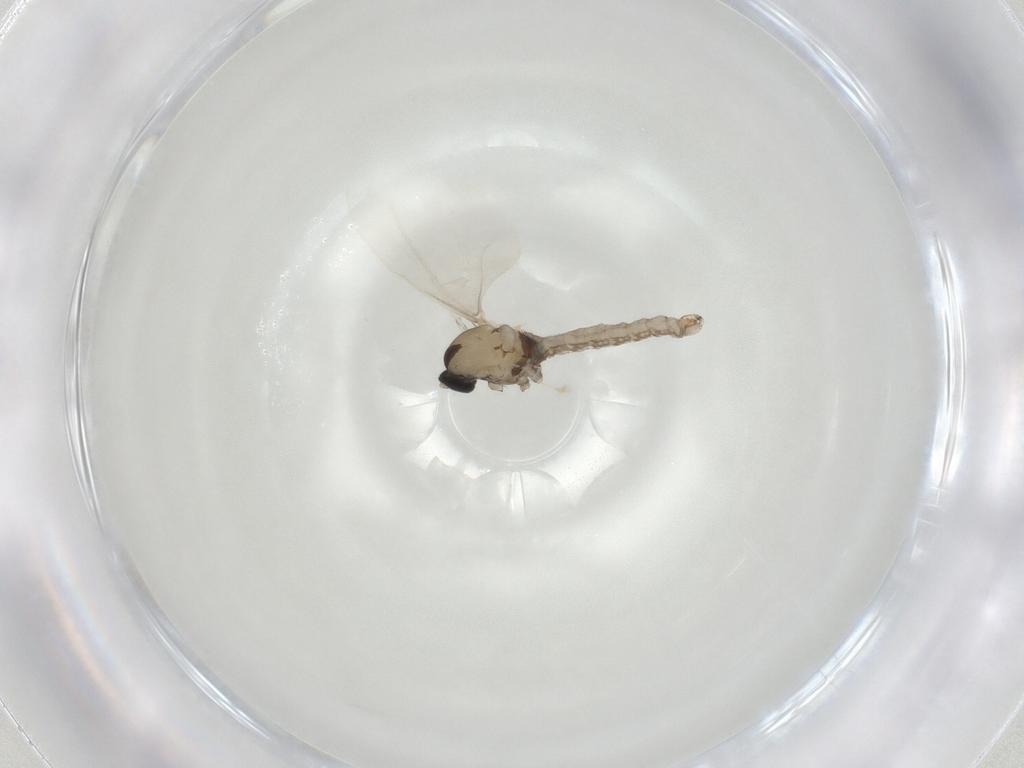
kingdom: Animalia
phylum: Arthropoda
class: Insecta
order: Diptera
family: Cecidomyiidae
